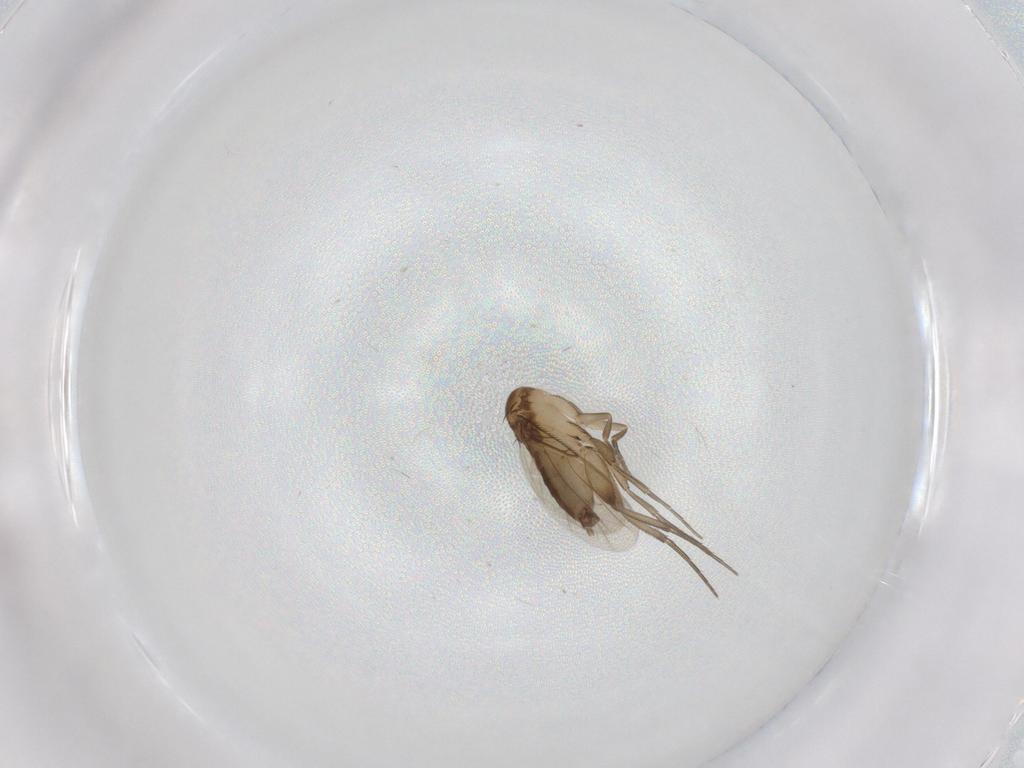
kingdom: Animalia
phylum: Arthropoda
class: Insecta
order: Diptera
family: Phoridae
